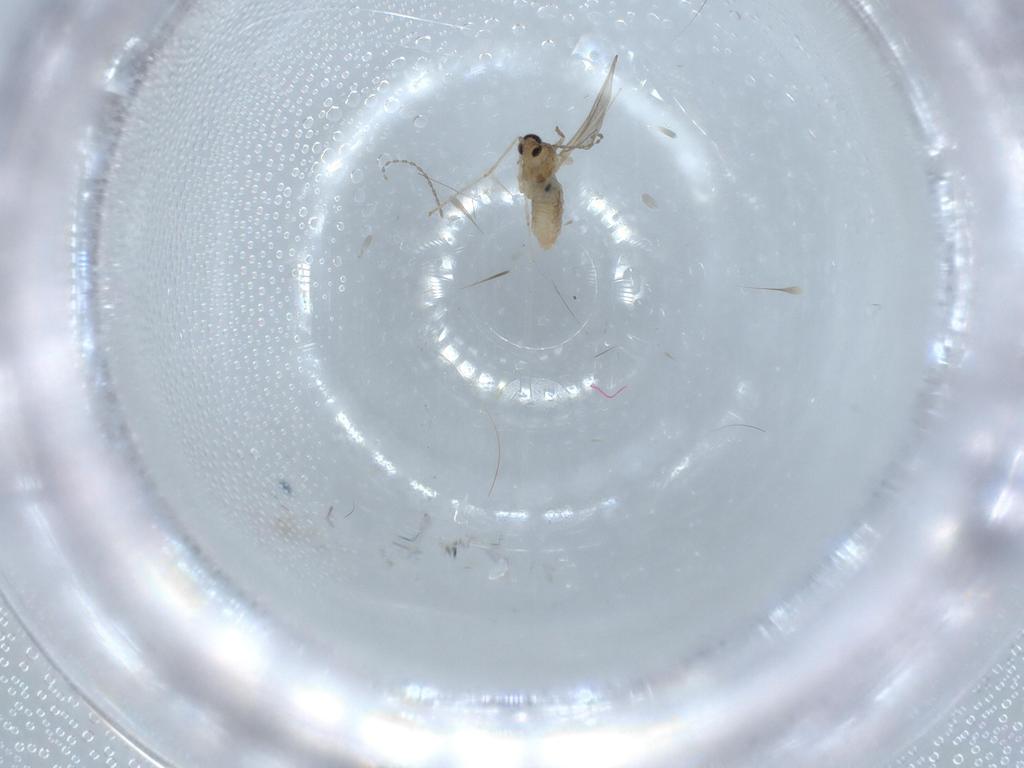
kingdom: Animalia
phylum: Arthropoda
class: Insecta
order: Diptera
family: Cecidomyiidae
